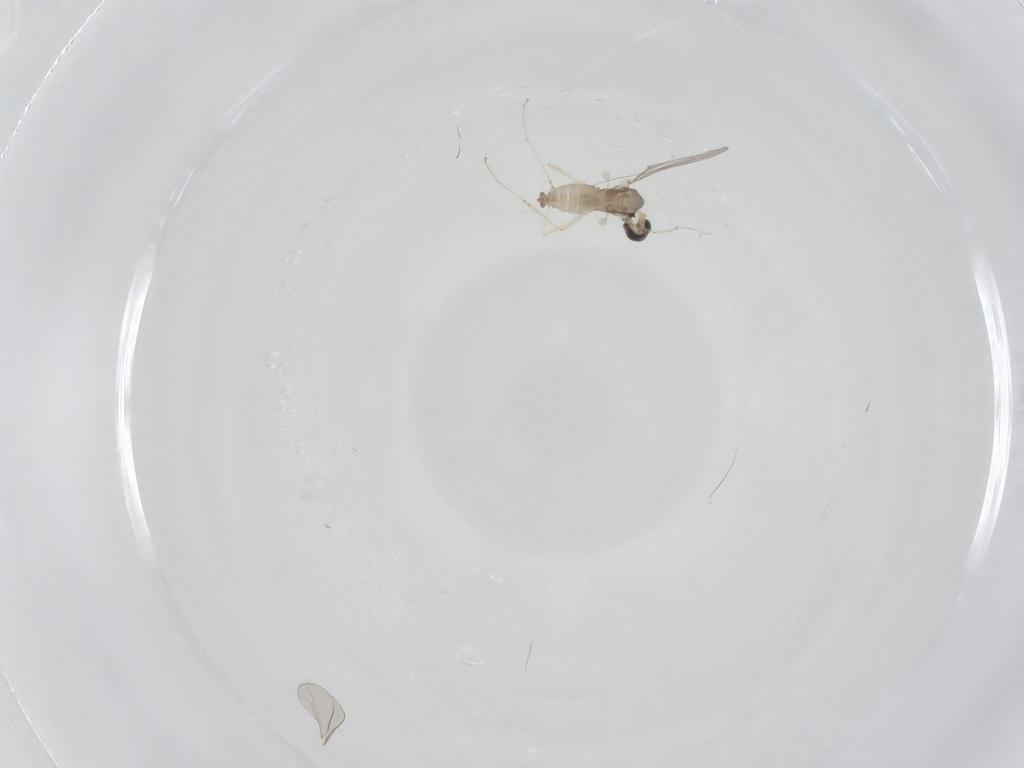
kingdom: Animalia
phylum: Arthropoda
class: Insecta
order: Diptera
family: Cecidomyiidae
